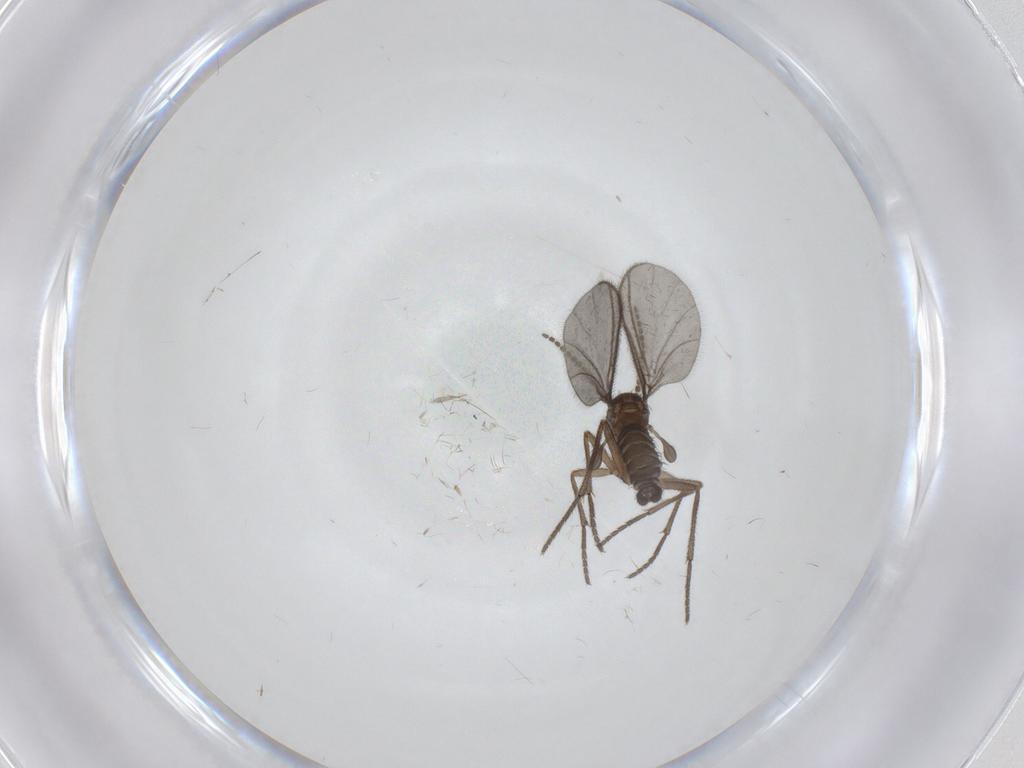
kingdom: Animalia
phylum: Arthropoda
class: Insecta
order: Diptera
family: Sciaridae
